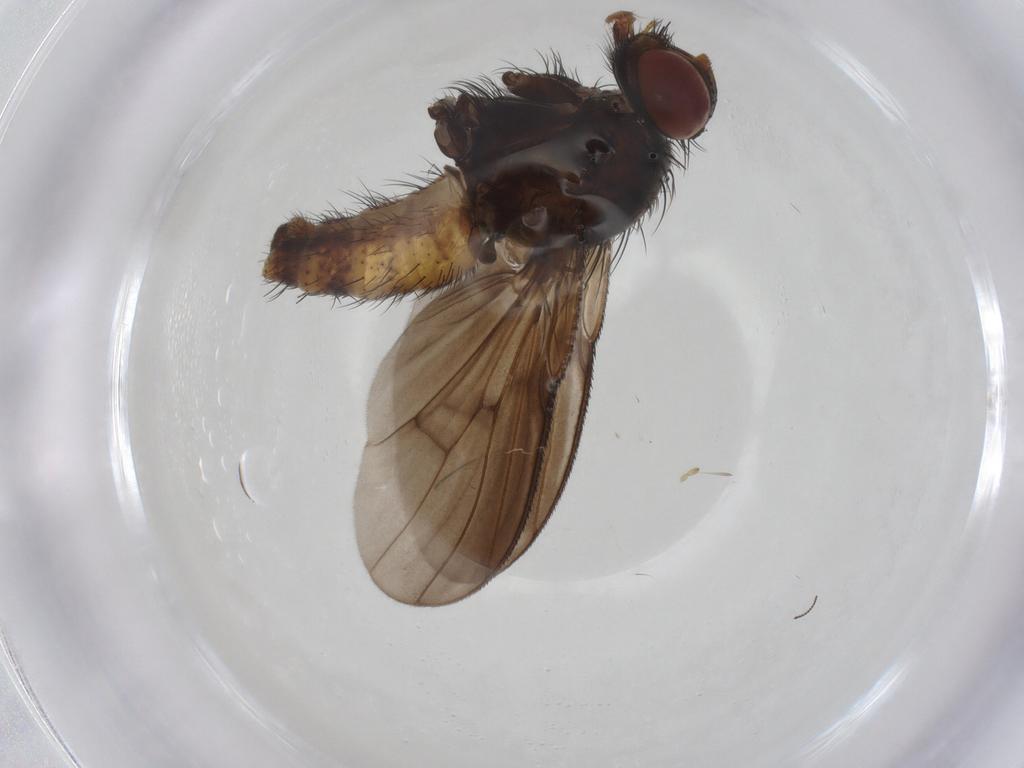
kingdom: Animalia
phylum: Arthropoda
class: Insecta
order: Diptera
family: Muscidae
